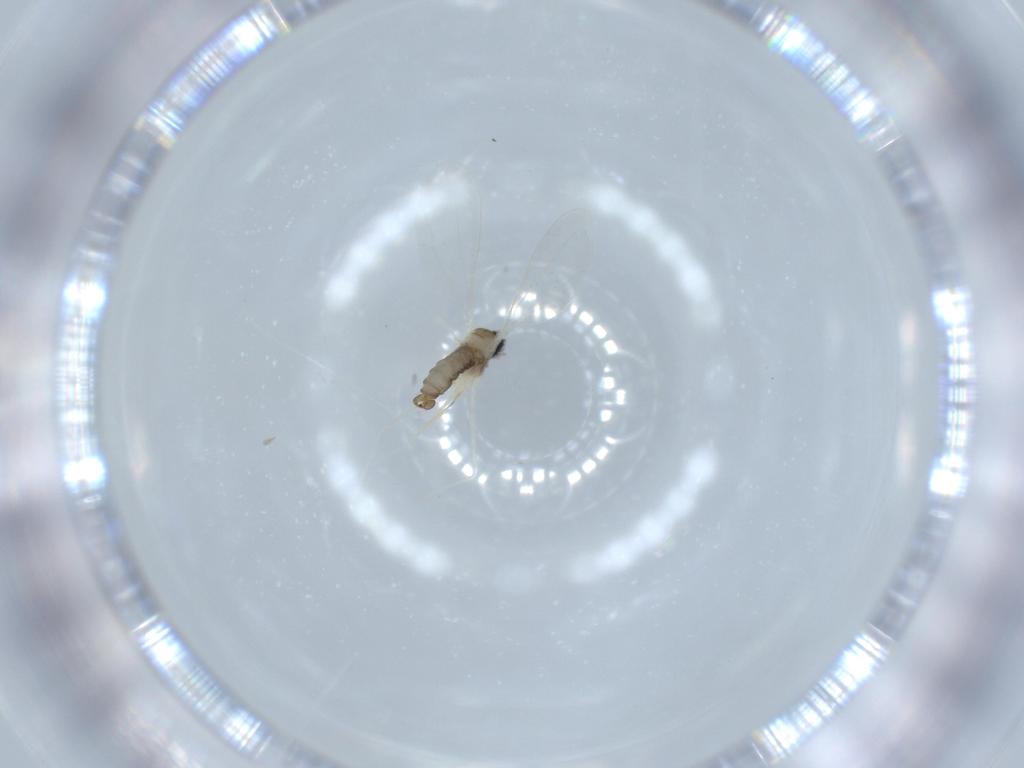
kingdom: Animalia
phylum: Arthropoda
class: Insecta
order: Diptera
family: Cecidomyiidae
